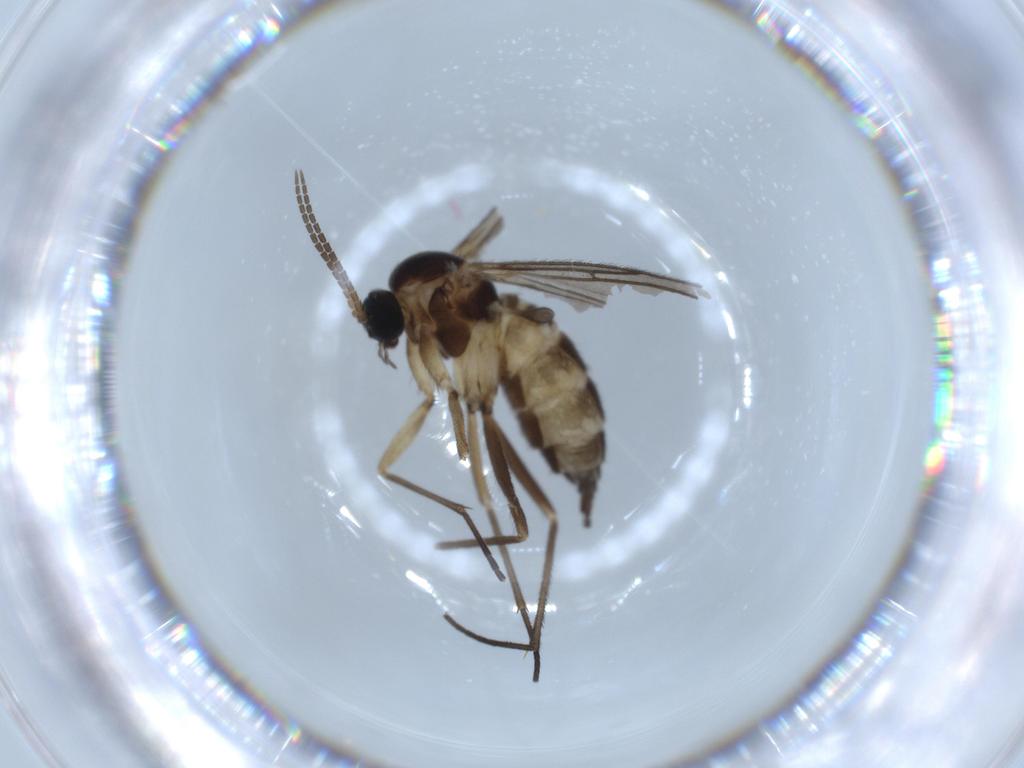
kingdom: Animalia
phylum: Arthropoda
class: Insecta
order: Diptera
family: Sciaridae
